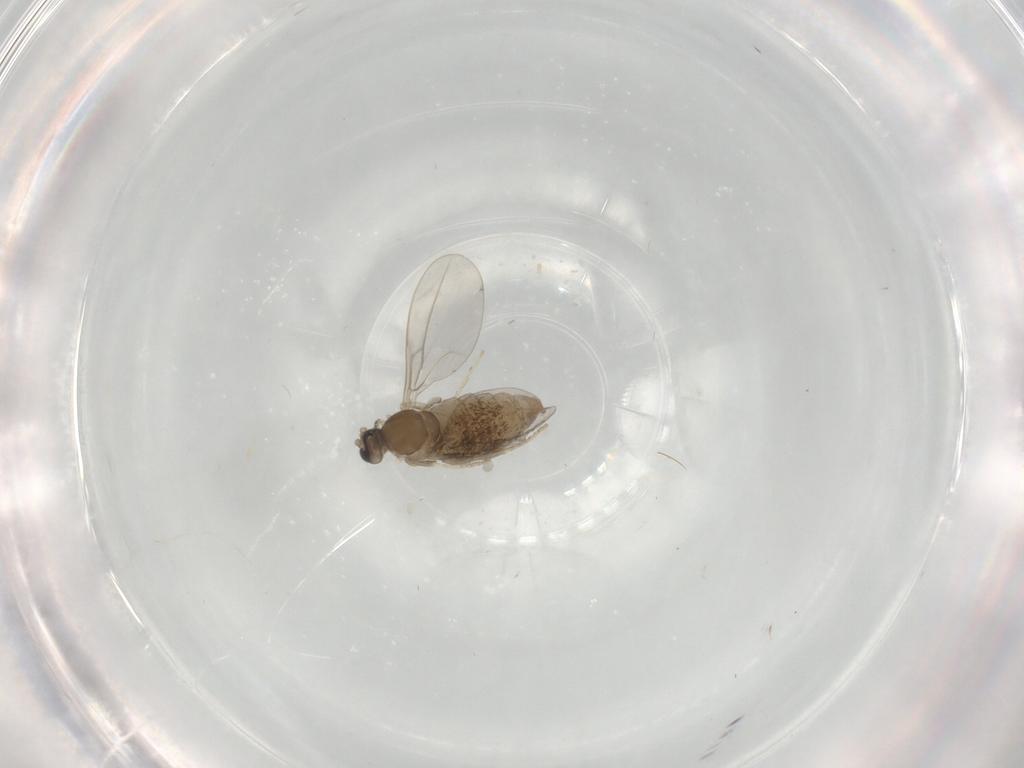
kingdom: Animalia
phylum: Arthropoda
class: Insecta
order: Diptera
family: Cecidomyiidae
